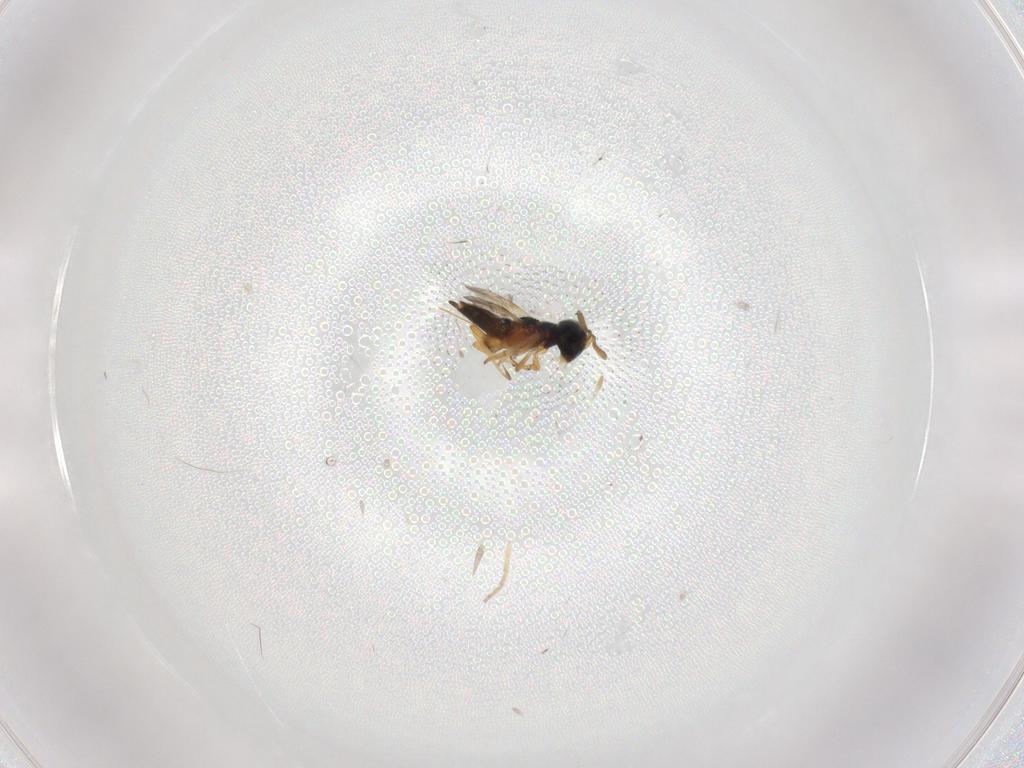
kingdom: Animalia
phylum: Arthropoda
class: Insecta
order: Hymenoptera
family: Encyrtidae
